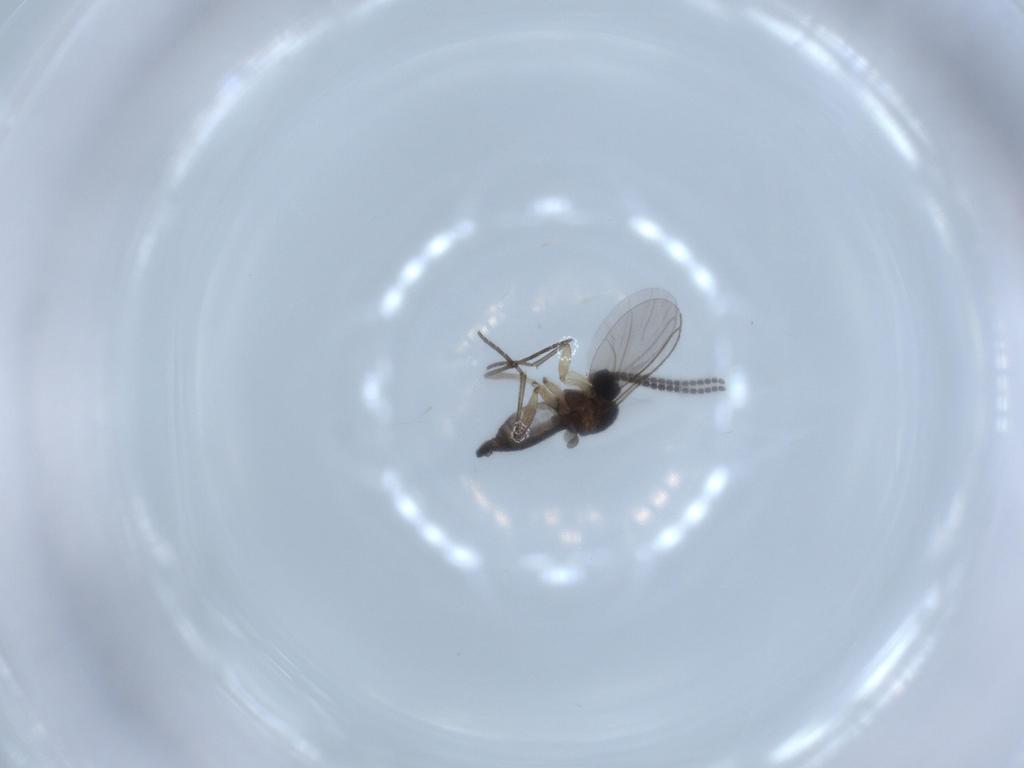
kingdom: Animalia
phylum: Arthropoda
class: Insecta
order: Diptera
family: Sciaridae
